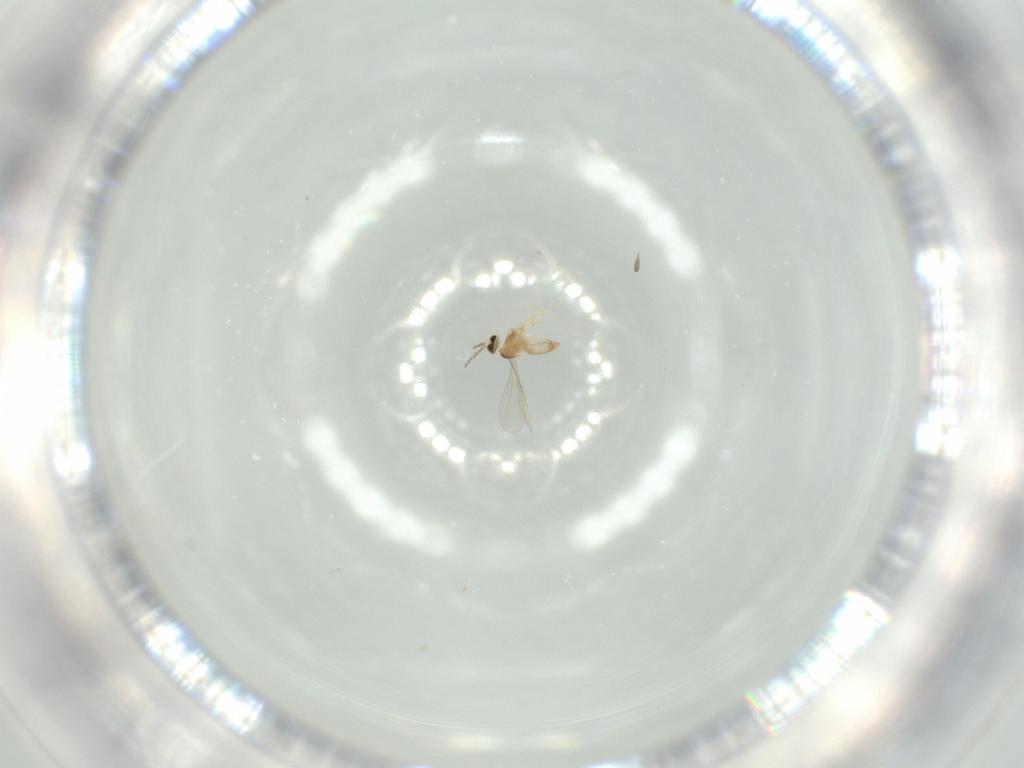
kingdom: Animalia
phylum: Arthropoda
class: Insecta
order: Diptera
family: Cecidomyiidae
